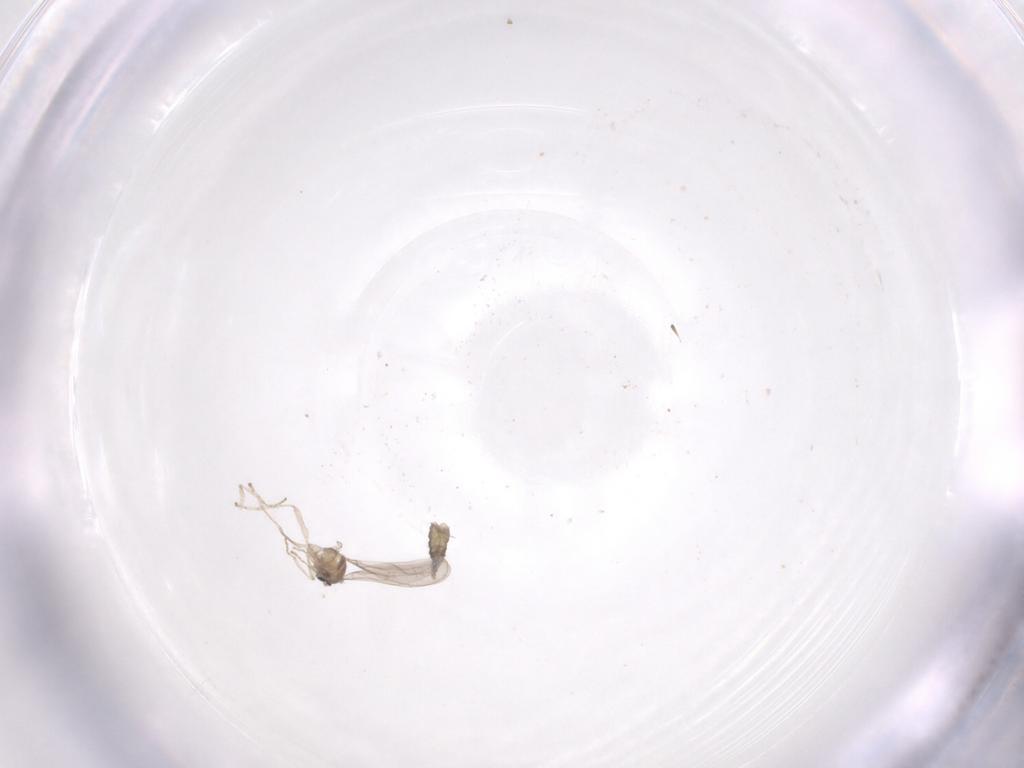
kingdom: Animalia
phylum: Arthropoda
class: Insecta
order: Diptera
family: Cecidomyiidae
